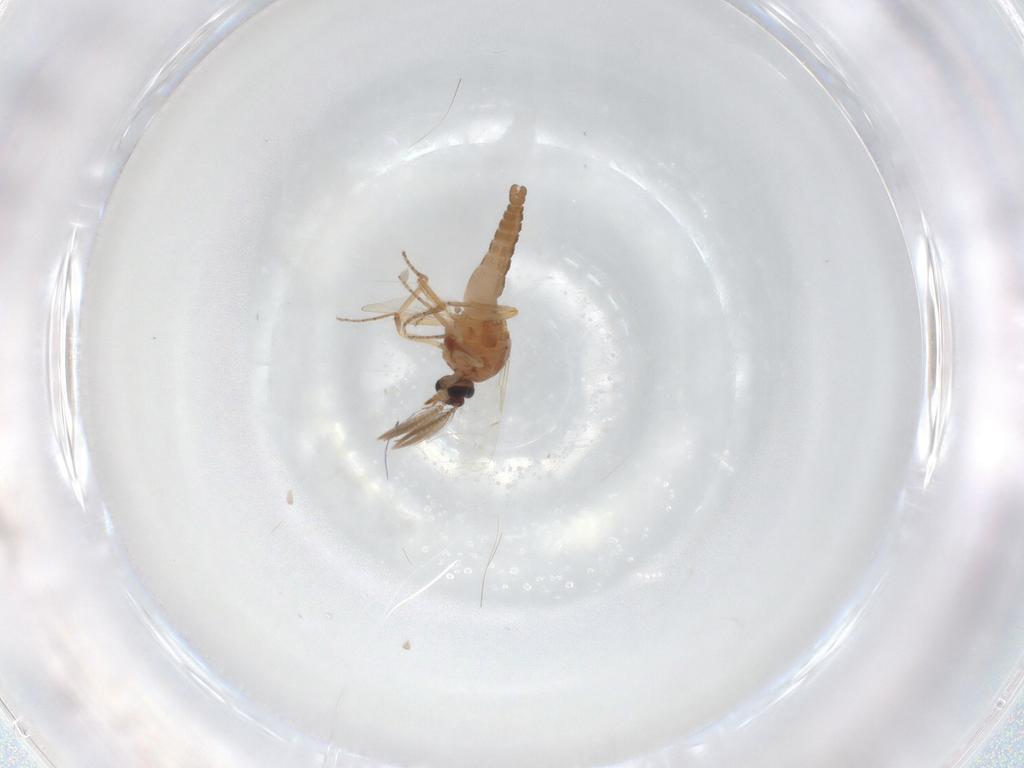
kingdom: Animalia
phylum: Arthropoda
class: Insecta
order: Diptera
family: Ceratopogonidae
